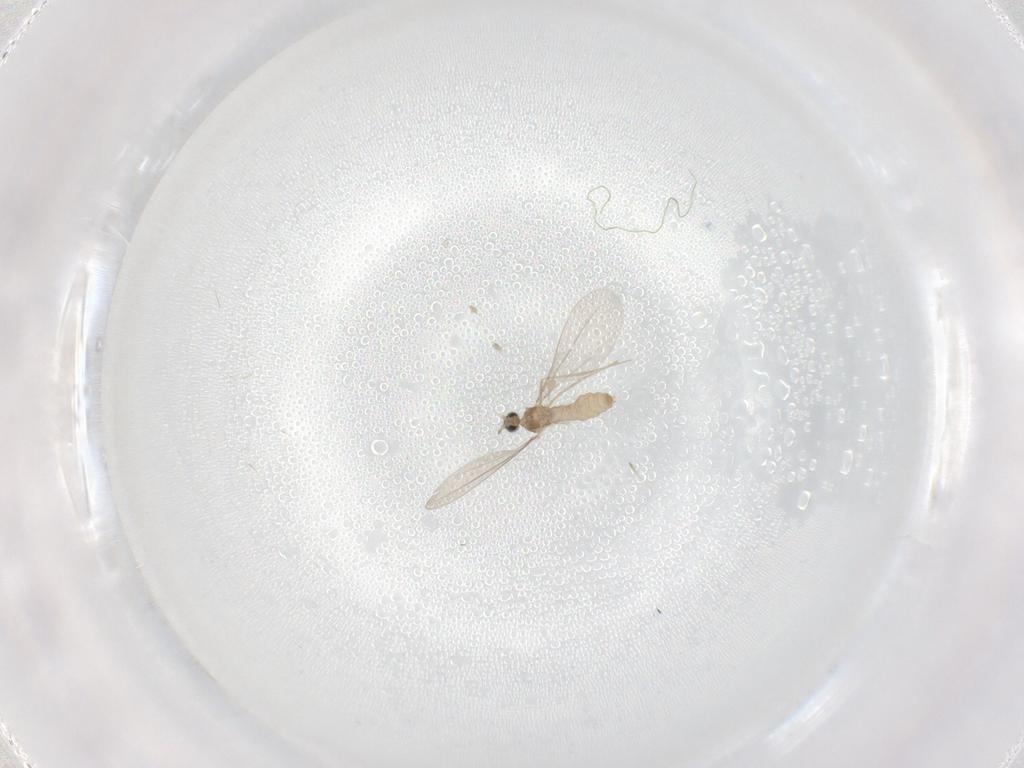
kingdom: Animalia
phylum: Arthropoda
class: Insecta
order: Diptera
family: Cecidomyiidae
